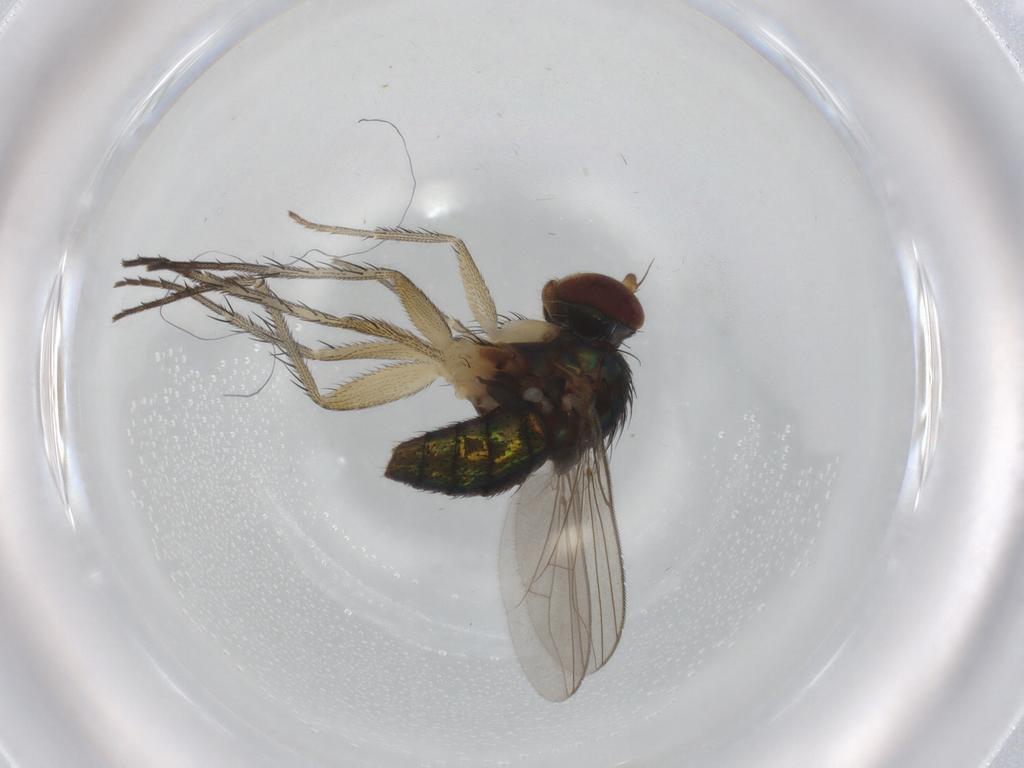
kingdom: Animalia
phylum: Arthropoda
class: Insecta
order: Diptera
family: Dolichopodidae
